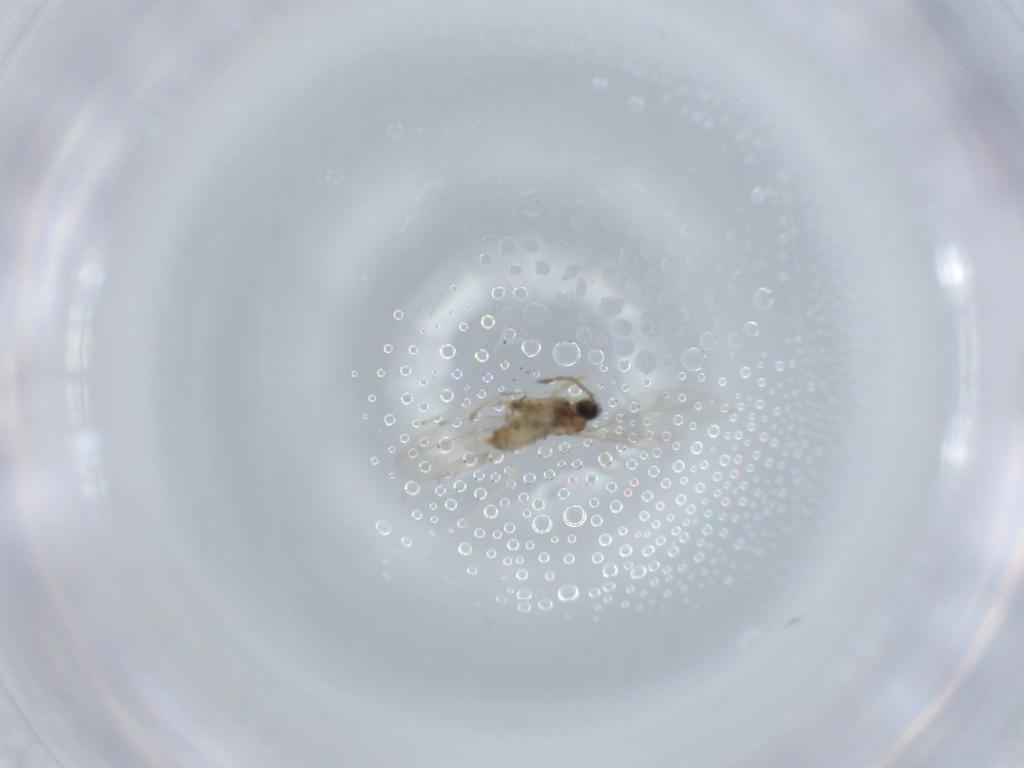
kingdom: Animalia
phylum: Arthropoda
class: Insecta
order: Diptera
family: Cecidomyiidae
